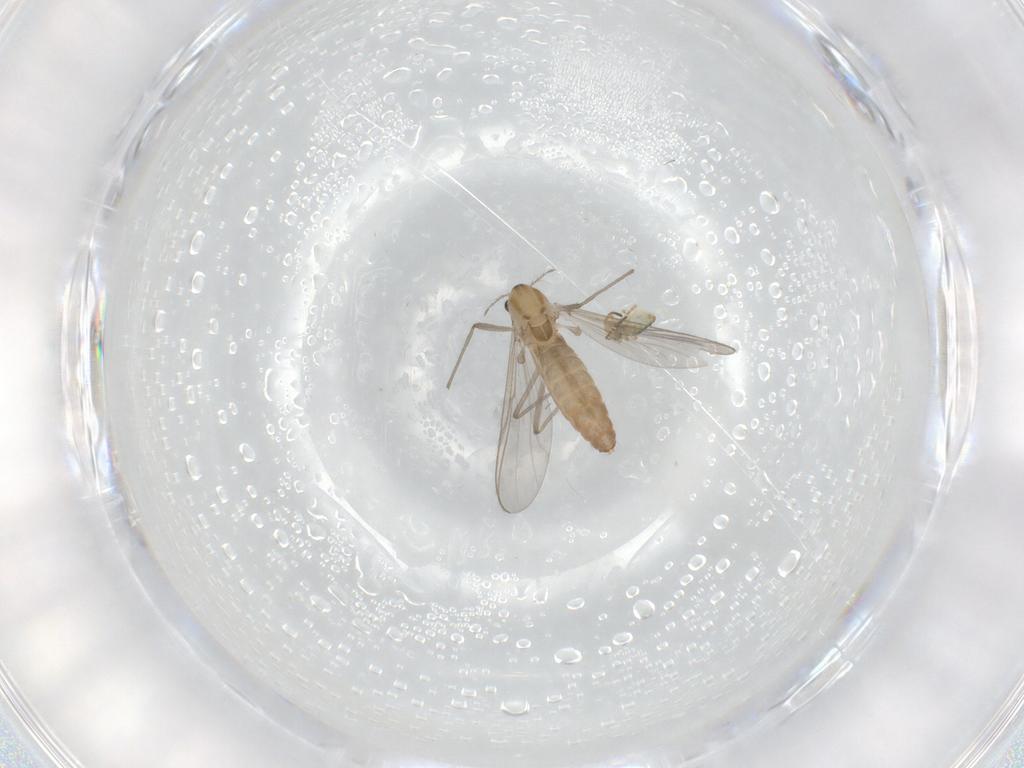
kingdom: Animalia
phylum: Arthropoda
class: Insecta
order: Diptera
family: Chironomidae
